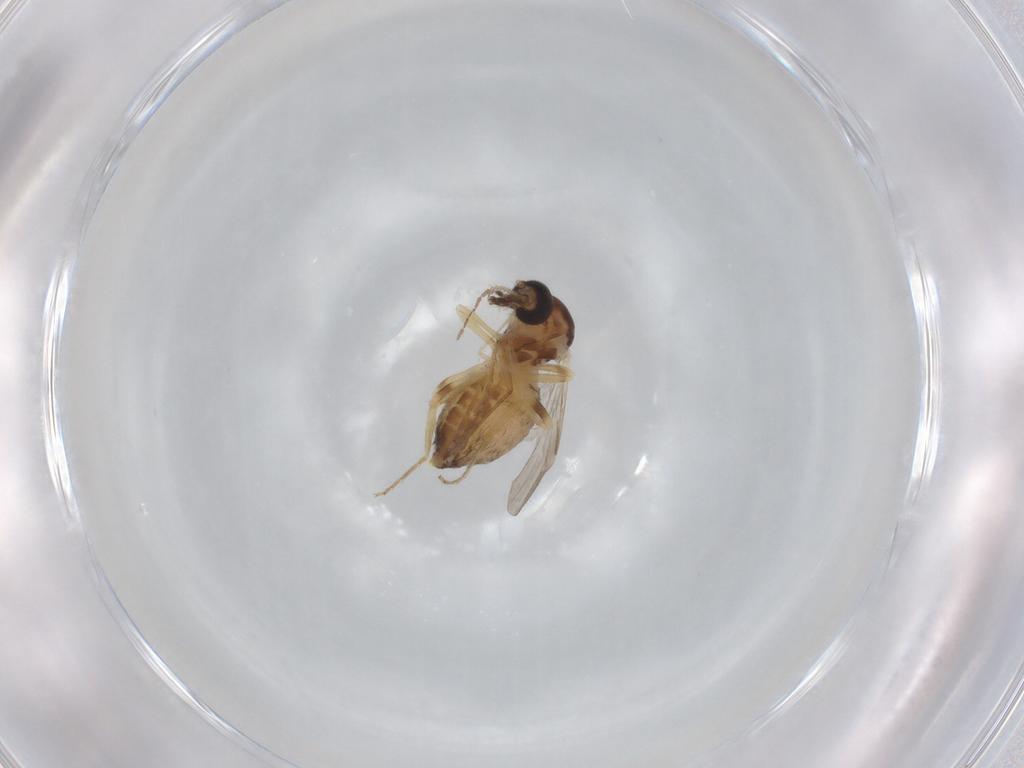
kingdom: Animalia
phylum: Arthropoda
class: Insecta
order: Diptera
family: Ceratopogonidae
